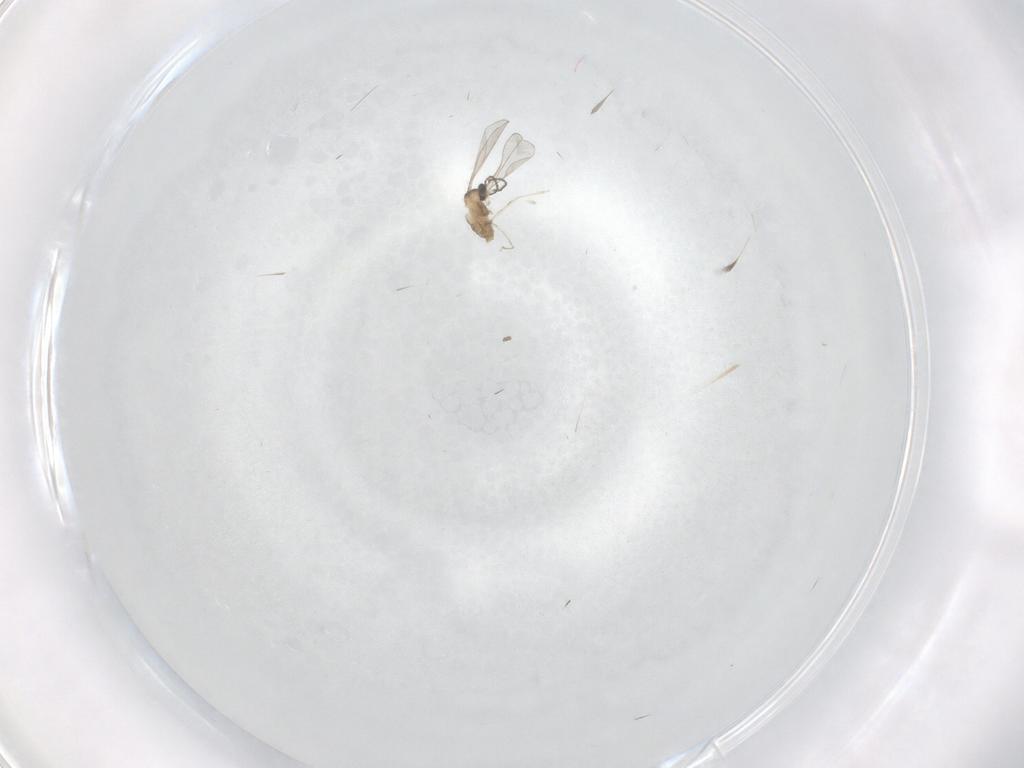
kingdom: Animalia
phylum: Arthropoda
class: Insecta
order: Diptera
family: Cecidomyiidae
